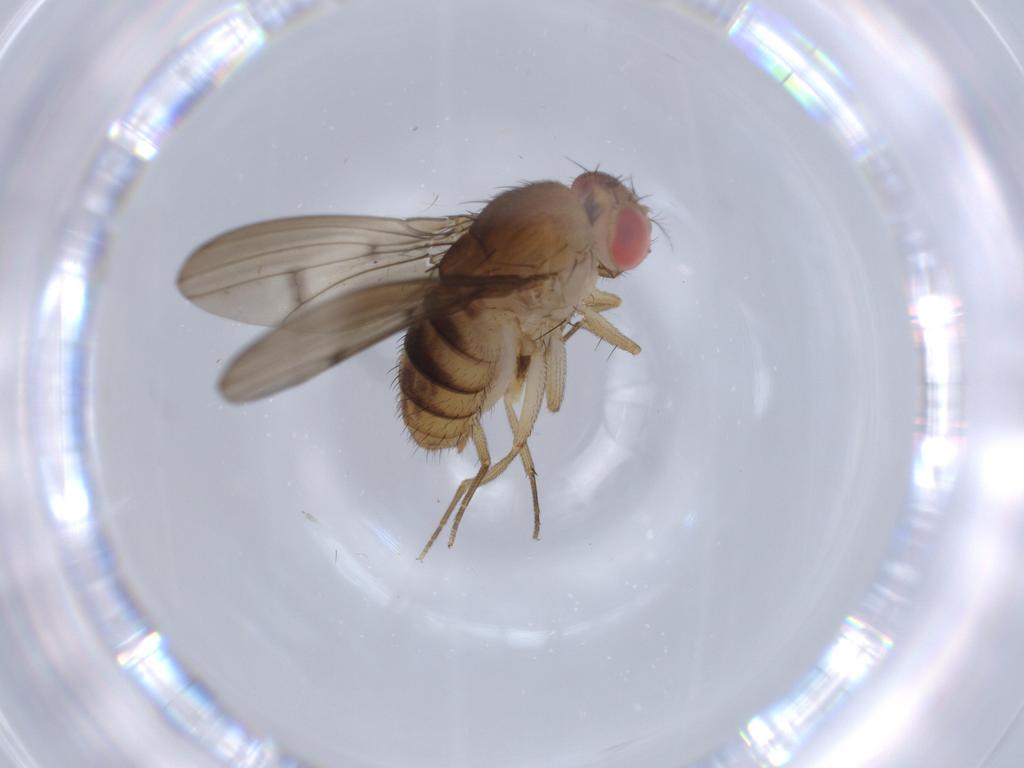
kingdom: Animalia
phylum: Arthropoda
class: Insecta
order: Diptera
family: Drosophilidae
